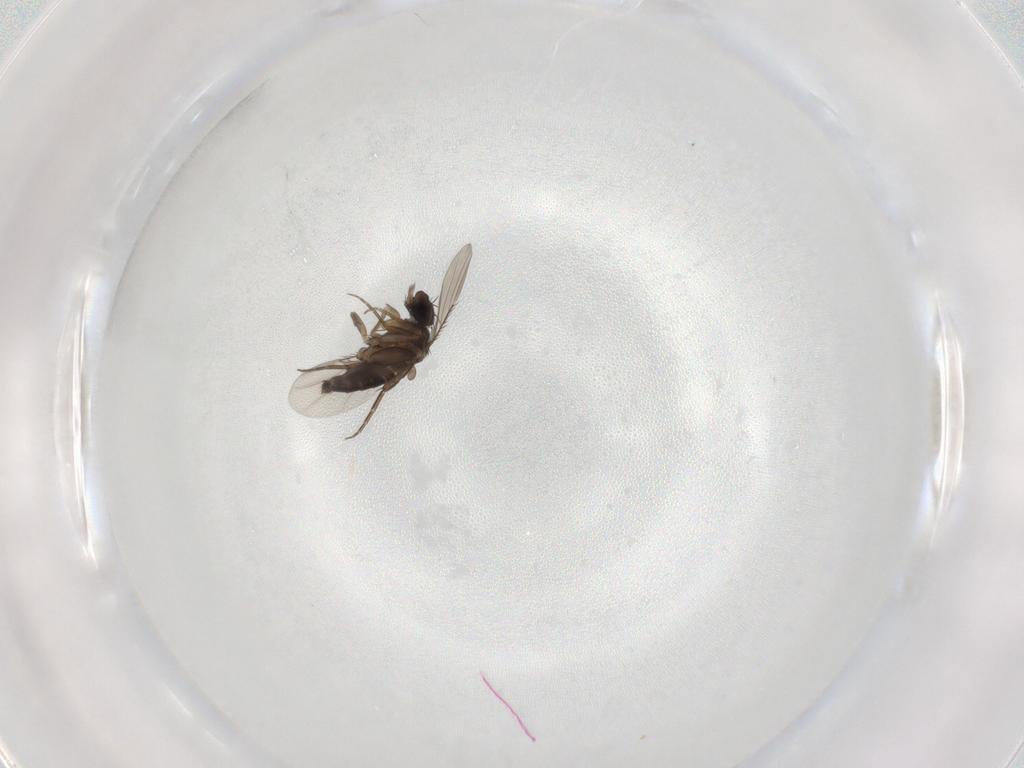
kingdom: Animalia
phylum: Arthropoda
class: Insecta
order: Diptera
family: Phoridae
